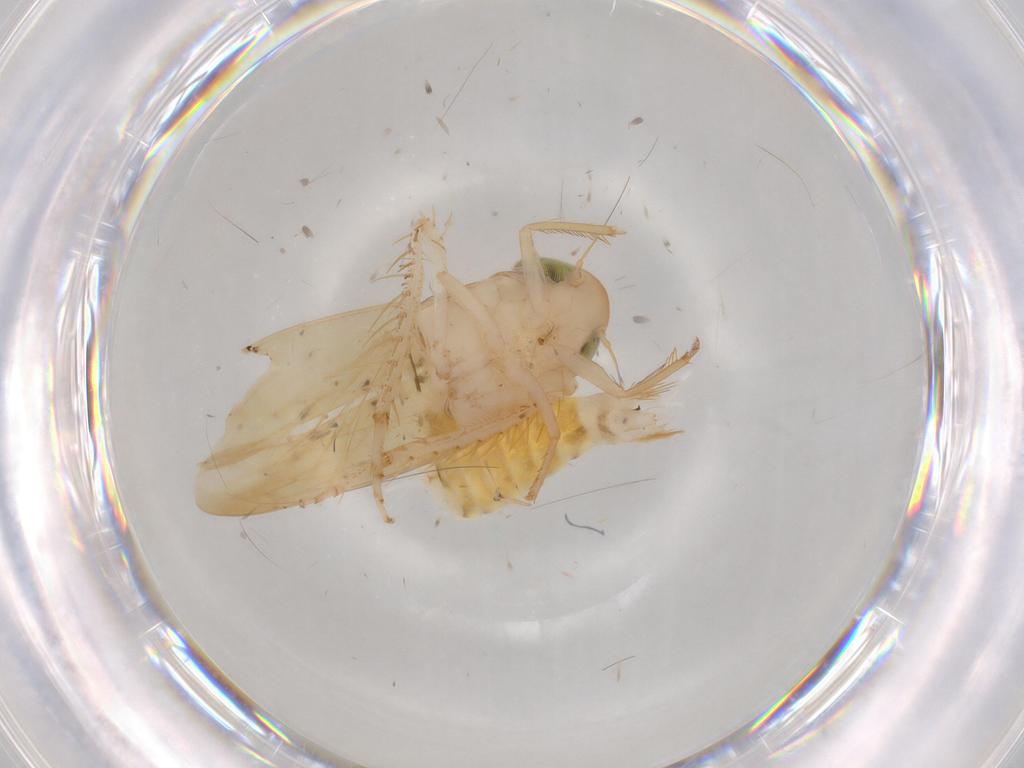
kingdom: Animalia
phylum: Arthropoda
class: Insecta
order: Hemiptera
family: Cicadellidae
